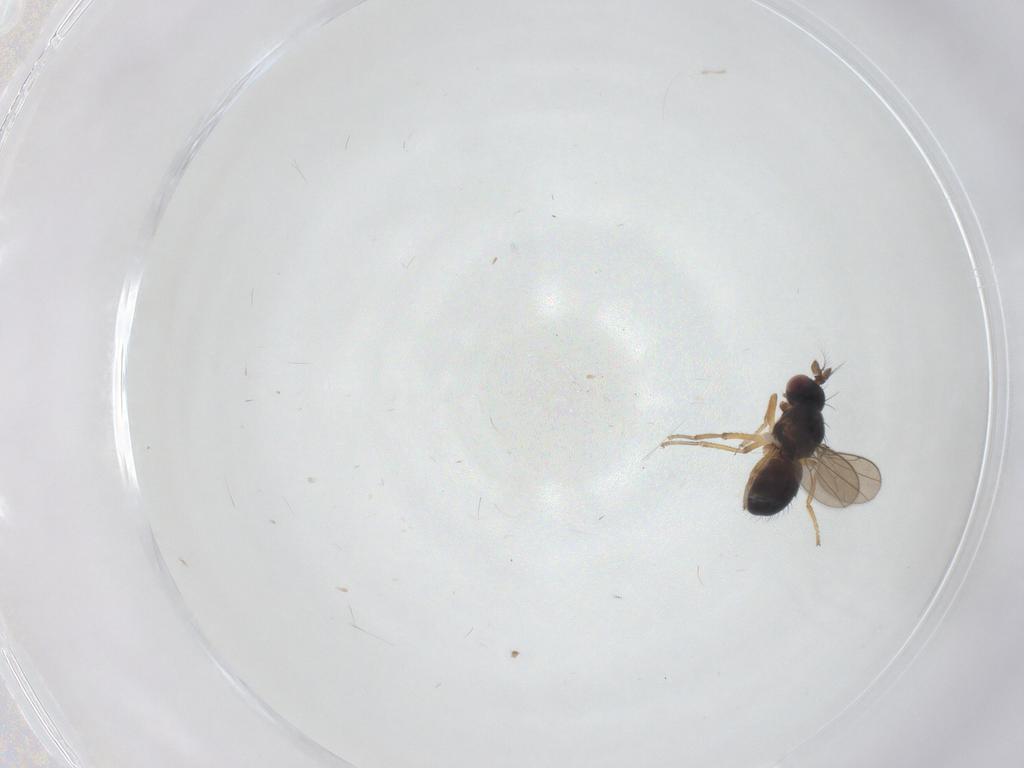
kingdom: Animalia
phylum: Arthropoda
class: Insecta
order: Diptera
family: Ephydridae
